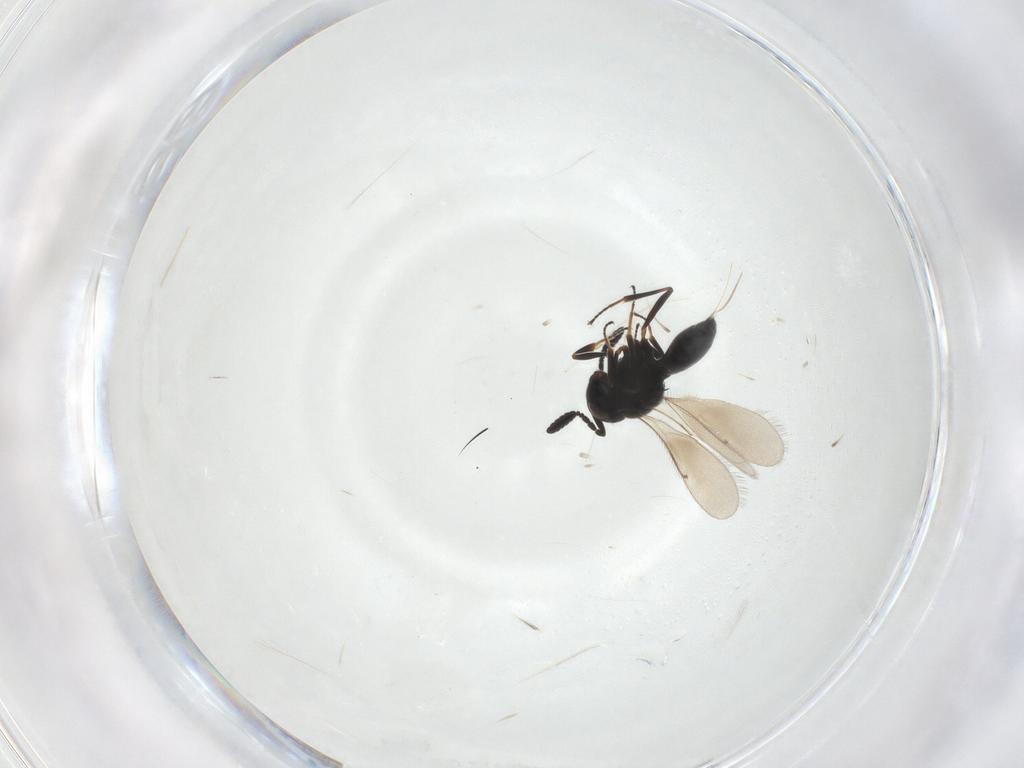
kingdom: Animalia
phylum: Arthropoda
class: Insecta
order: Hymenoptera
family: Scelionidae
